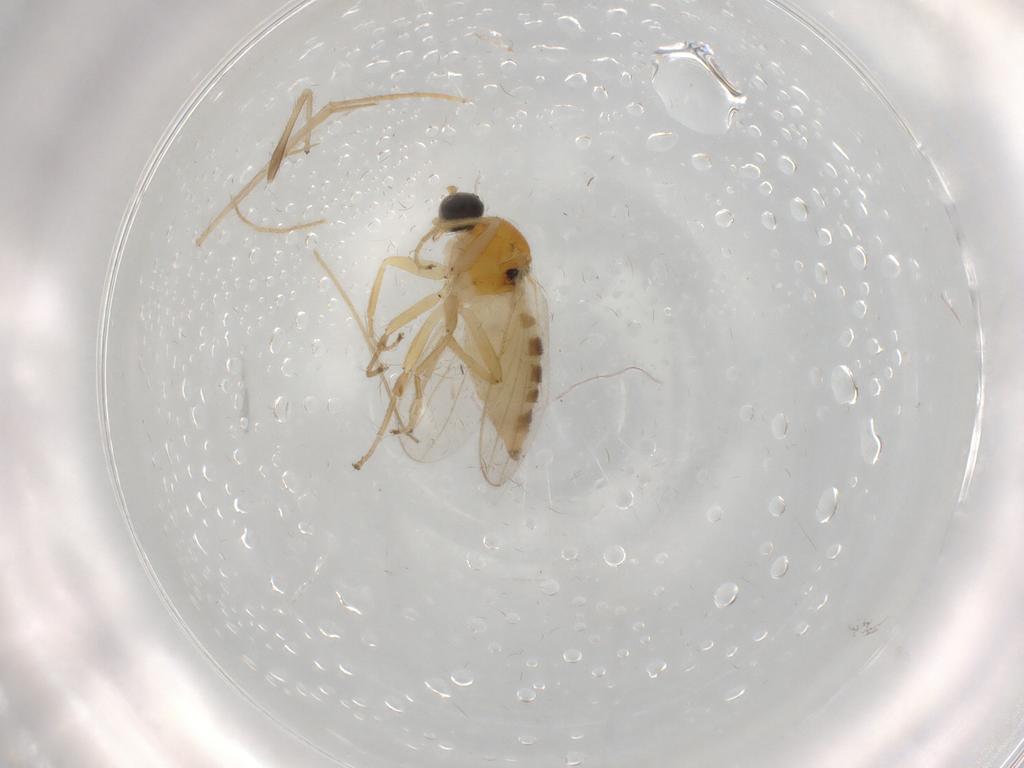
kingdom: Animalia
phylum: Arthropoda
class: Insecta
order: Diptera
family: Hybotidae
